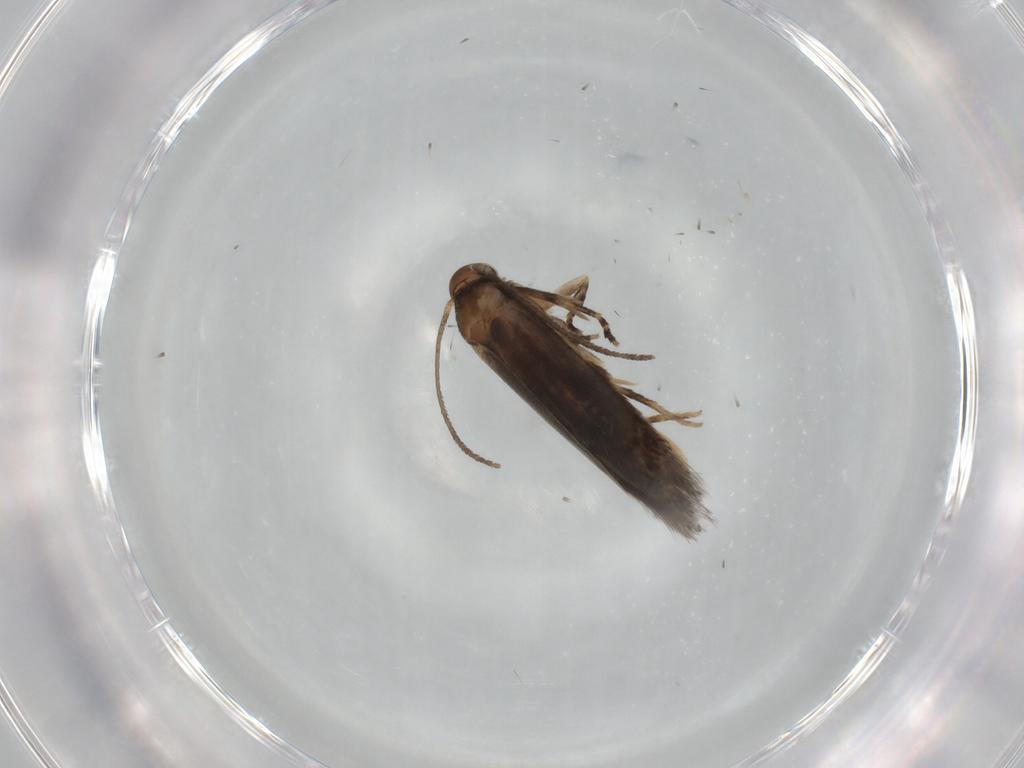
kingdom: Animalia
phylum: Arthropoda
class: Insecta
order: Lepidoptera
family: Elachistidae
